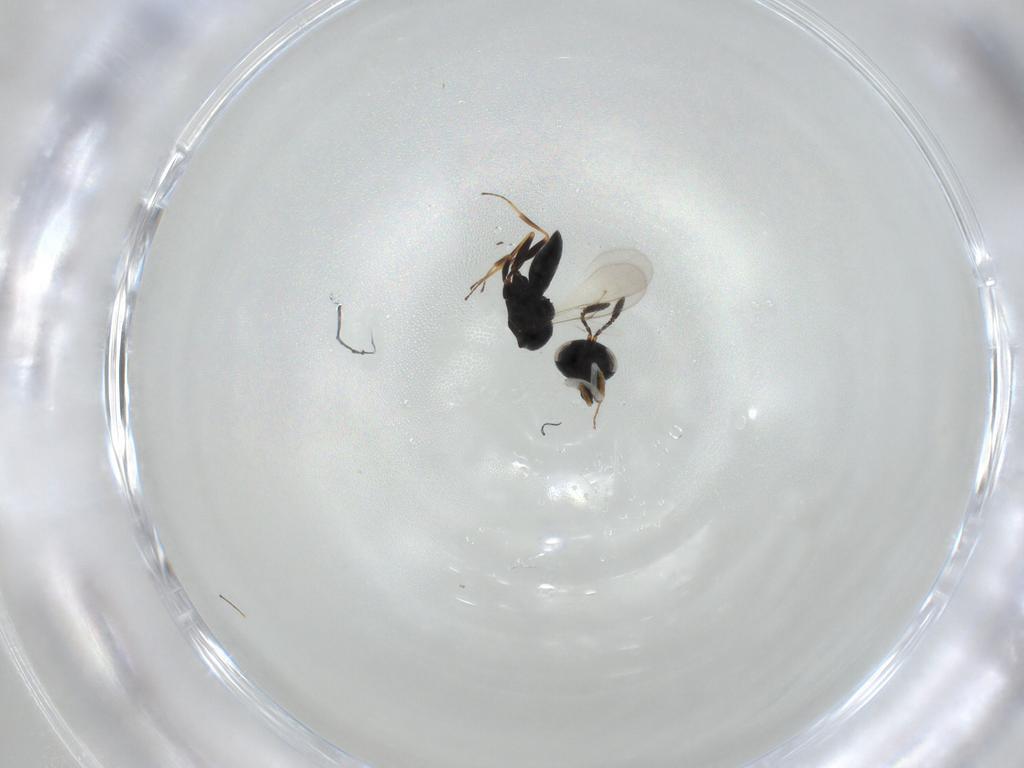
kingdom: Animalia
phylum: Arthropoda
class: Insecta
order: Hymenoptera
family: Scelionidae
